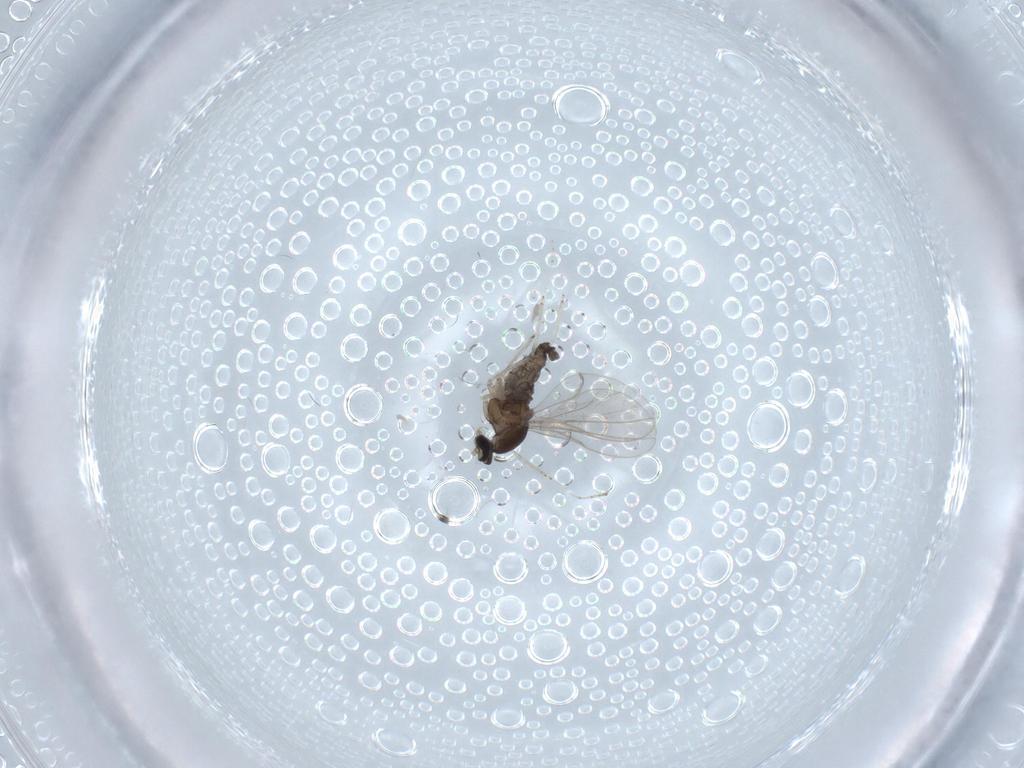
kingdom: Animalia
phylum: Arthropoda
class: Insecta
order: Diptera
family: Cecidomyiidae
